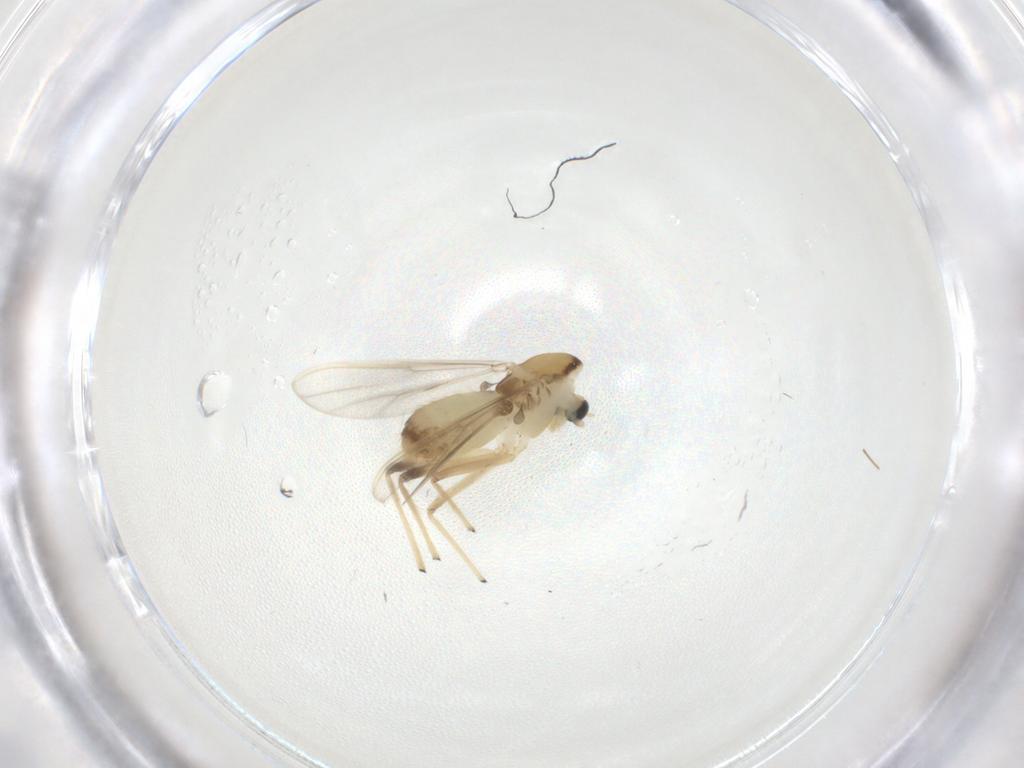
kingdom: Animalia
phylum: Arthropoda
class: Insecta
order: Diptera
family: Chironomidae
